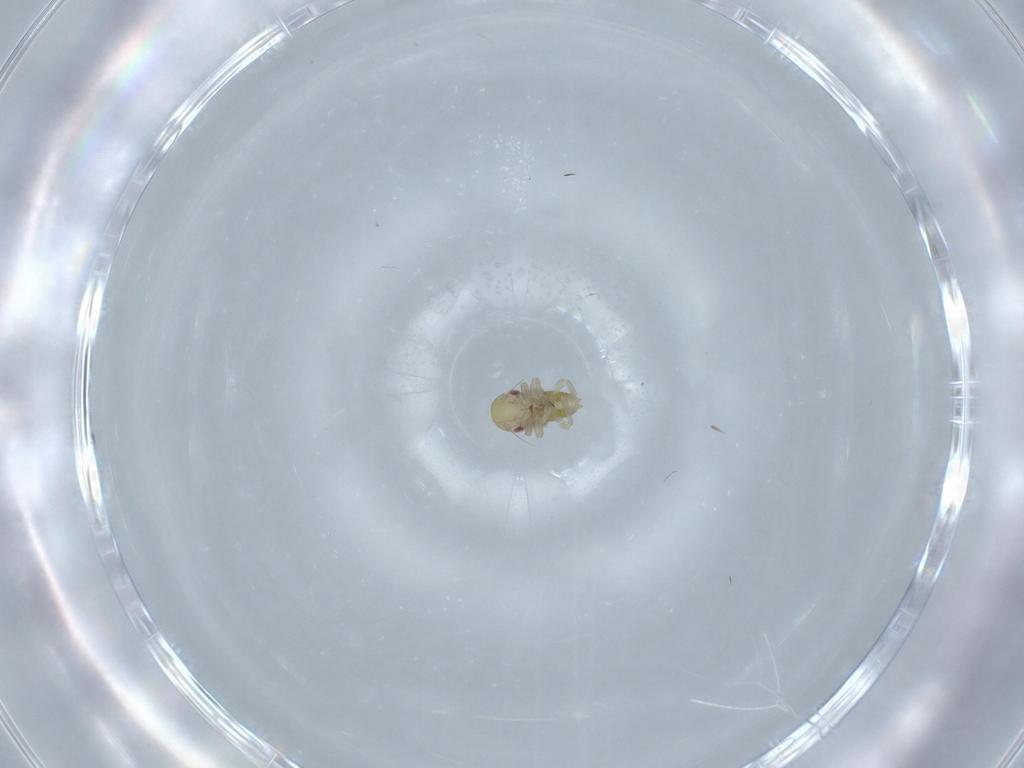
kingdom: Animalia
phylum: Arthropoda
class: Insecta
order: Hemiptera
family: Cicadellidae
